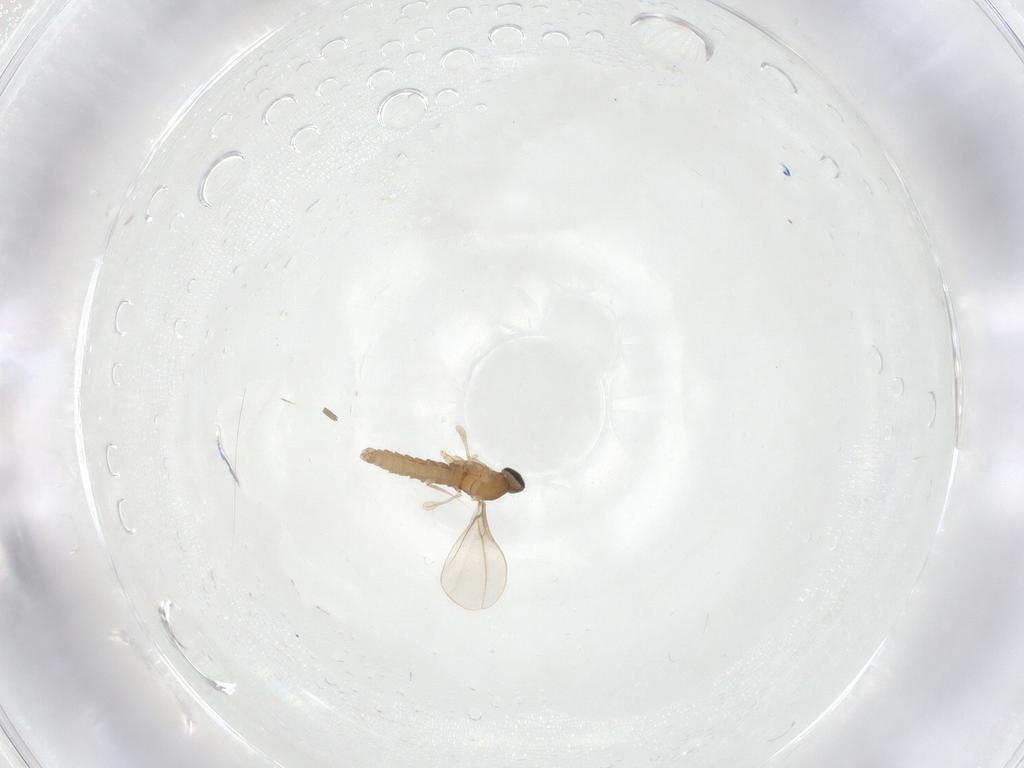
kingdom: Animalia
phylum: Arthropoda
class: Insecta
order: Diptera
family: Cecidomyiidae
